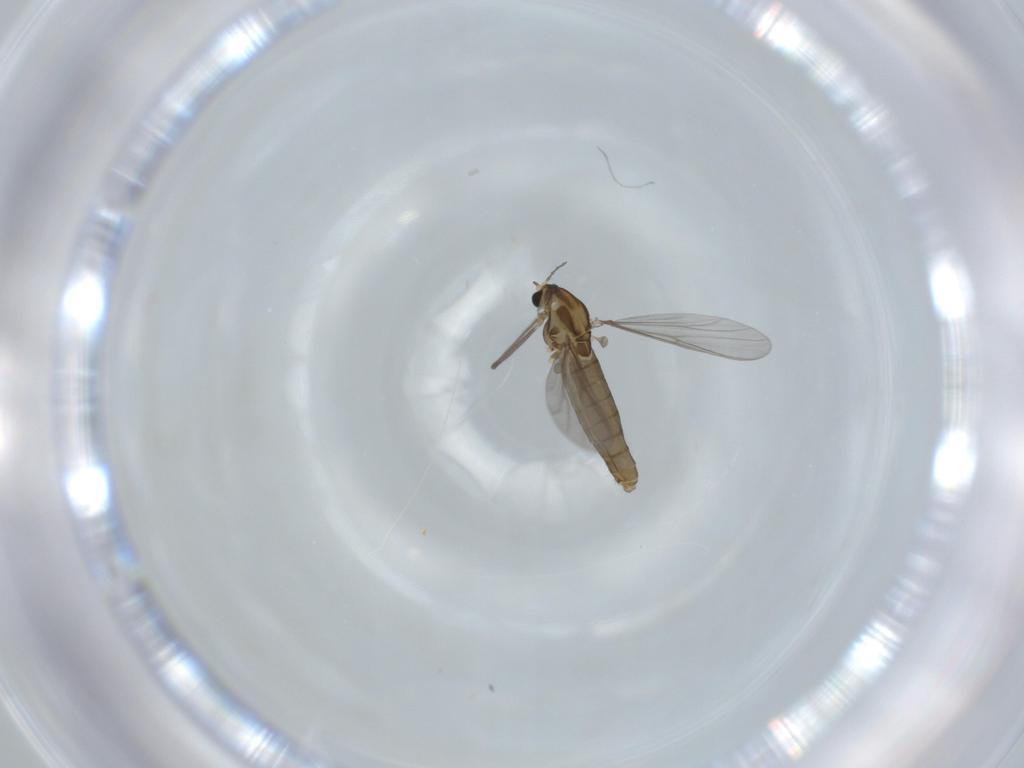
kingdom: Animalia
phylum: Arthropoda
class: Insecta
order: Diptera
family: Chironomidae
